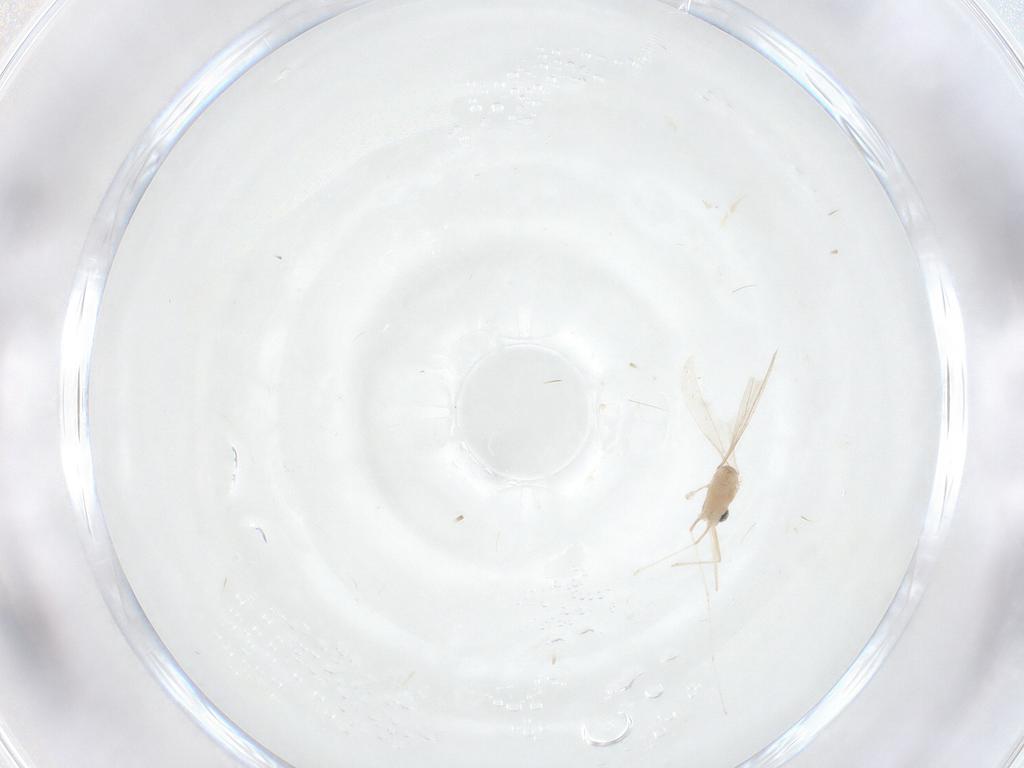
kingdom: Animalia
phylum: Arthropoda
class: Insecta
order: Diptera
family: Cecidomyiidae
